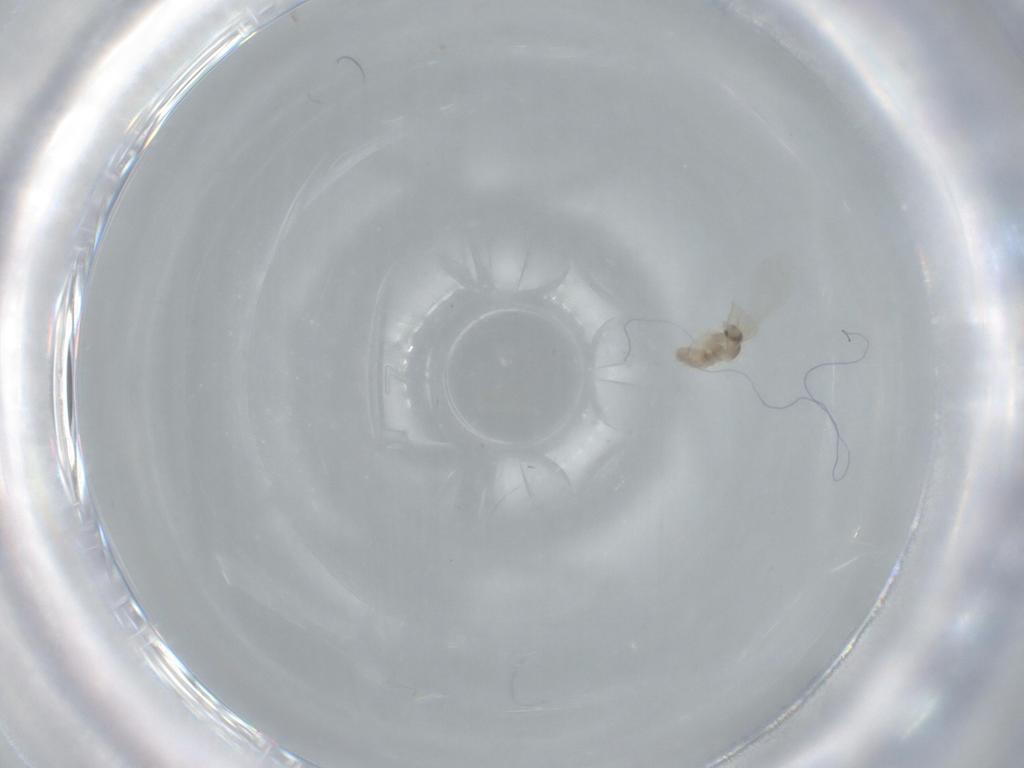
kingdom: Animalia
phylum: Arthropoda
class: Insecta
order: Diptera
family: Cecidomyiidae
